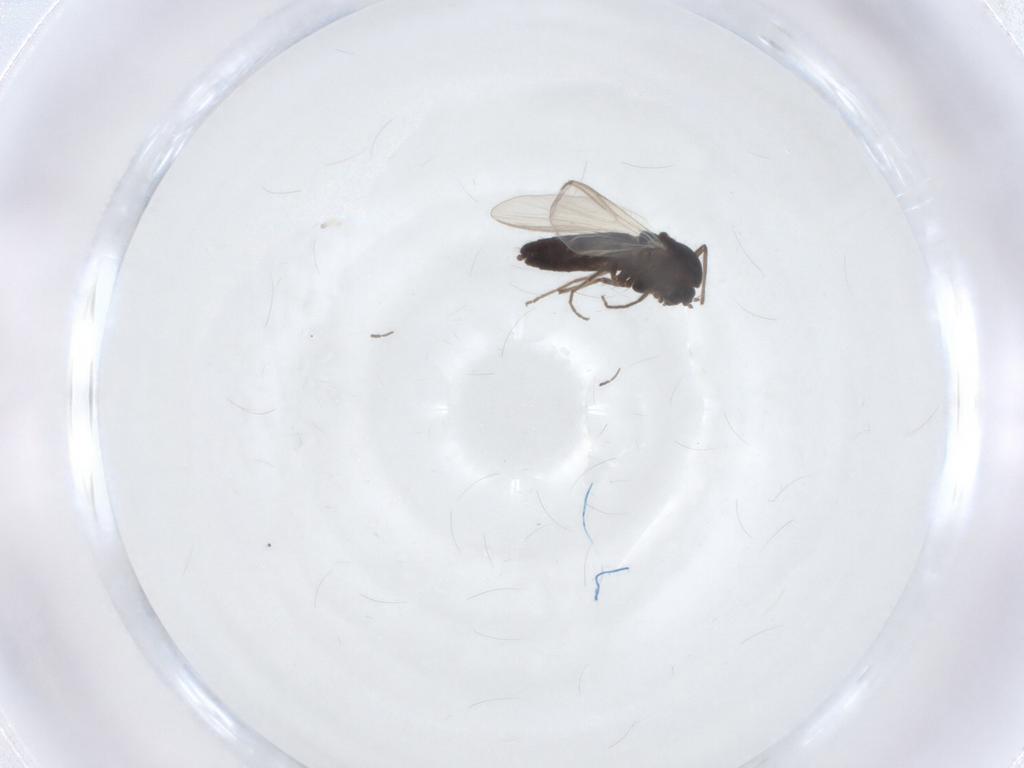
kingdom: Animalia
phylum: Arthropoda
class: Insecta
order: Diptera
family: Chironomidae
